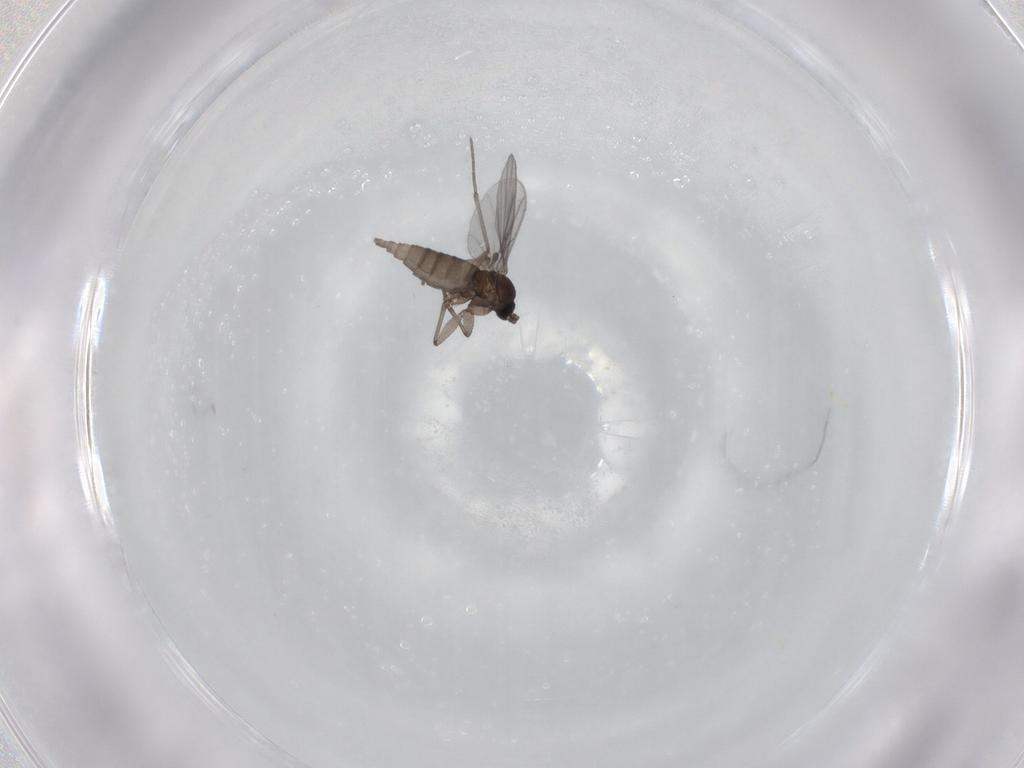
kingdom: Animalia
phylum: Arthropoda
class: Insecta
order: Diptera
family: Sciaridae
